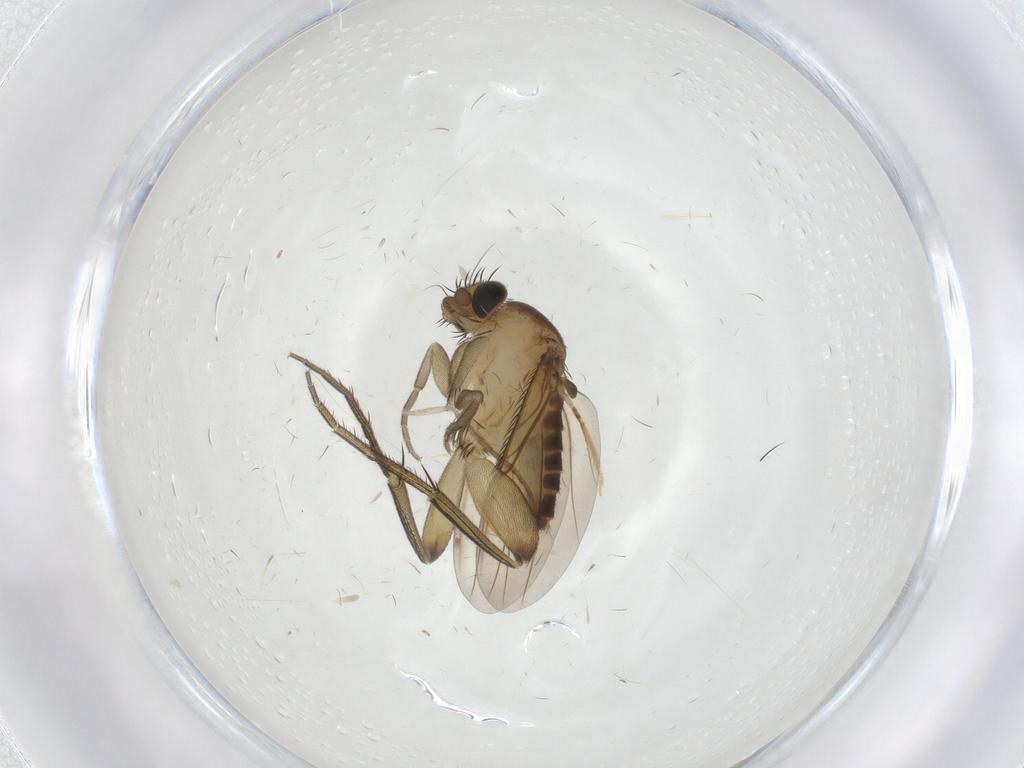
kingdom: Animalia
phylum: Arthropoda
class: Insecta
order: Diptera
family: Phoridae
